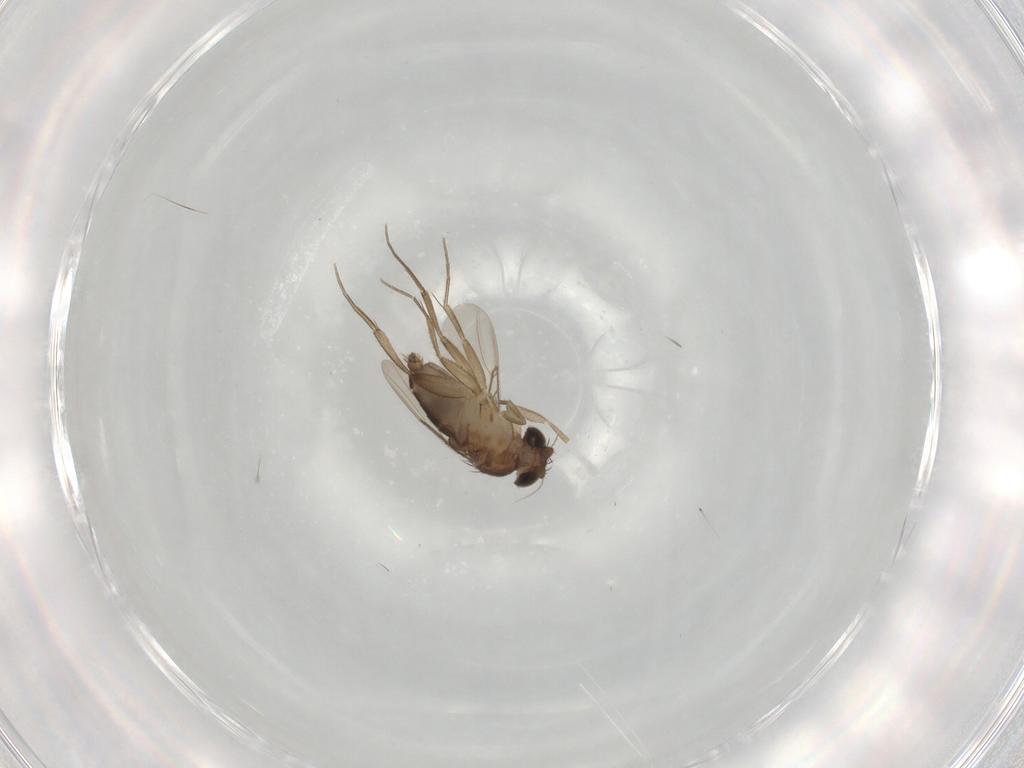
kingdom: Animalia
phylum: Arthropoda
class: Insecta
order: Diptera
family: Phoridae
